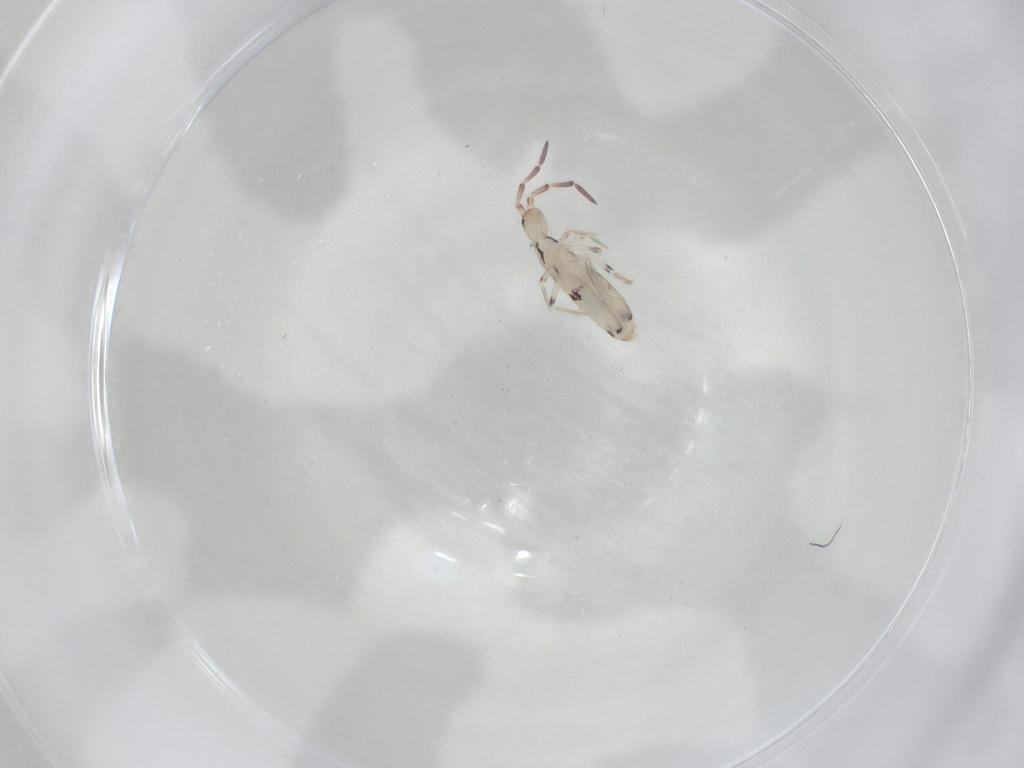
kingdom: Animalia
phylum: Arthropoda
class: Collembola
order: Entomobryomorpha
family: Entomobryidae
